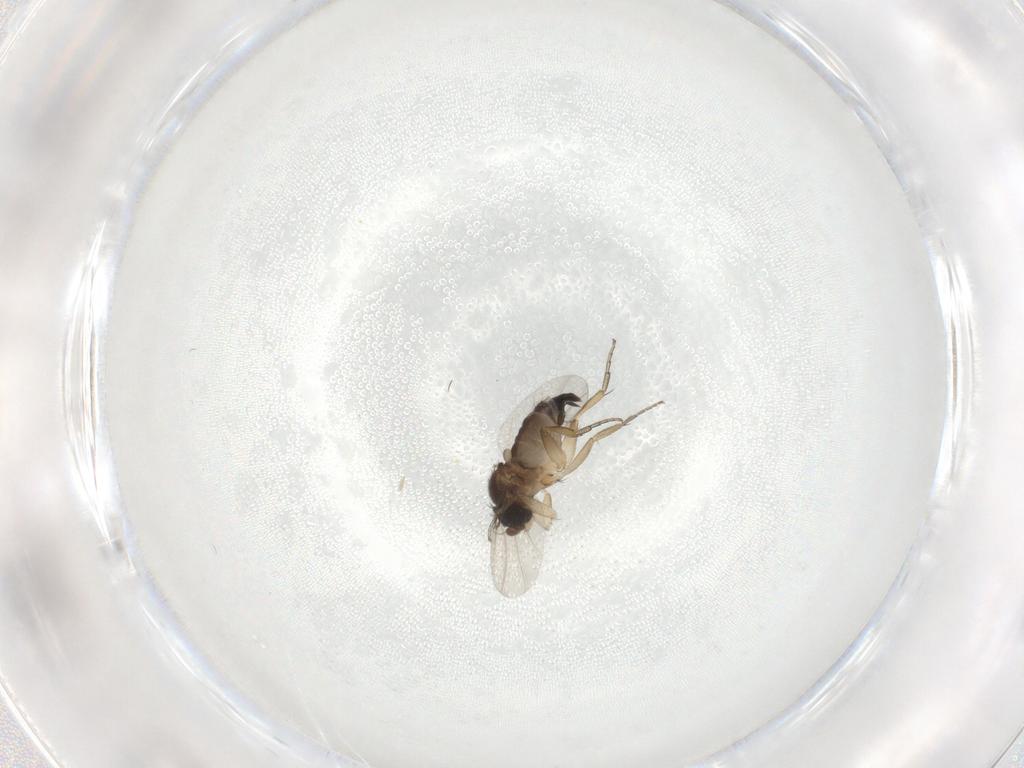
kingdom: Animalia
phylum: Arthropoda
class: Insecta
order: Diptera
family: Phoridae
